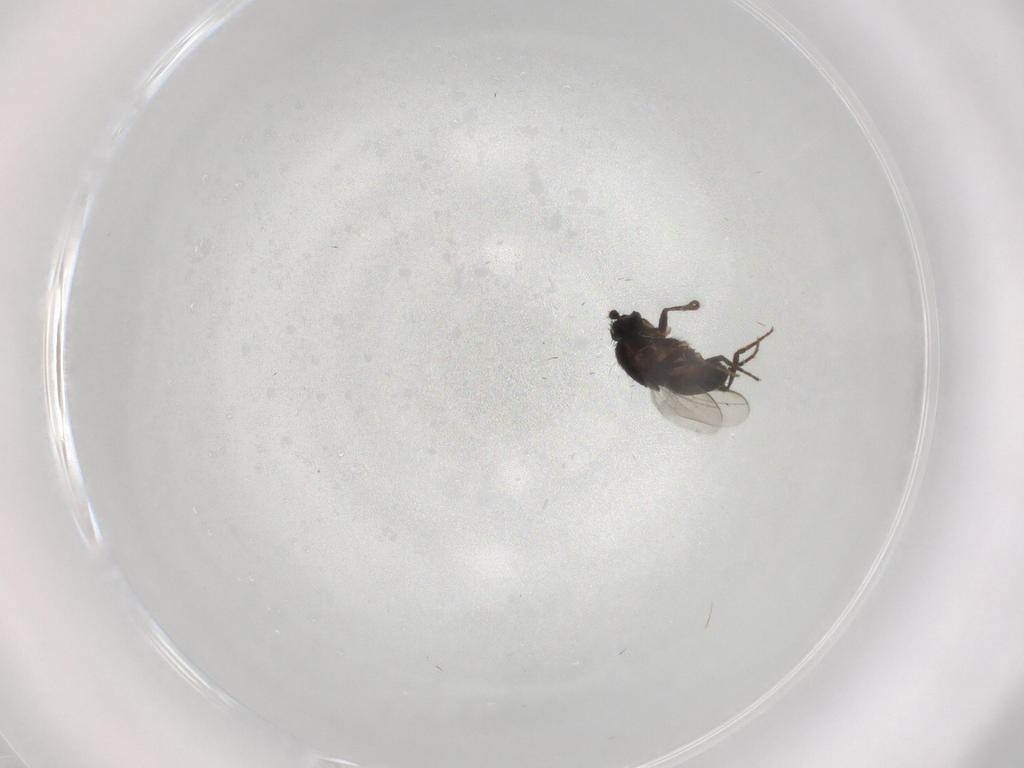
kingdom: Animalia
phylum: Arthropoda
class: Insecta
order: Diptera
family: Sphaeroceridae
